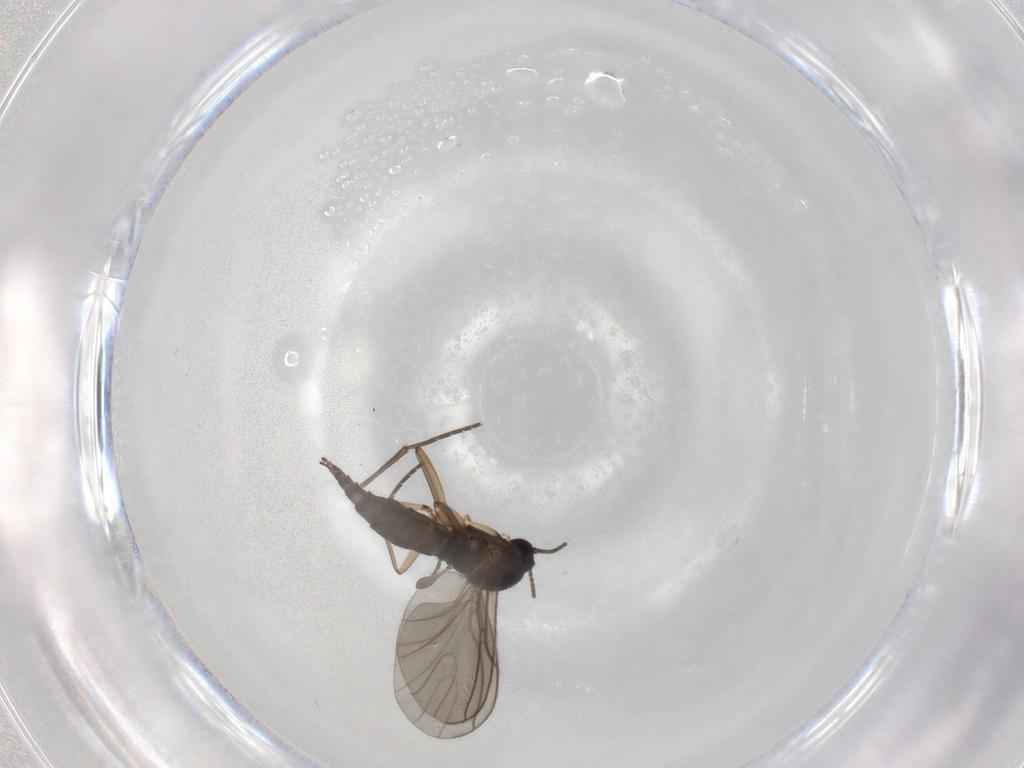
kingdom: Animalia
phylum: Arthropoda
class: Insecta
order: Diptera
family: Sciaridae
